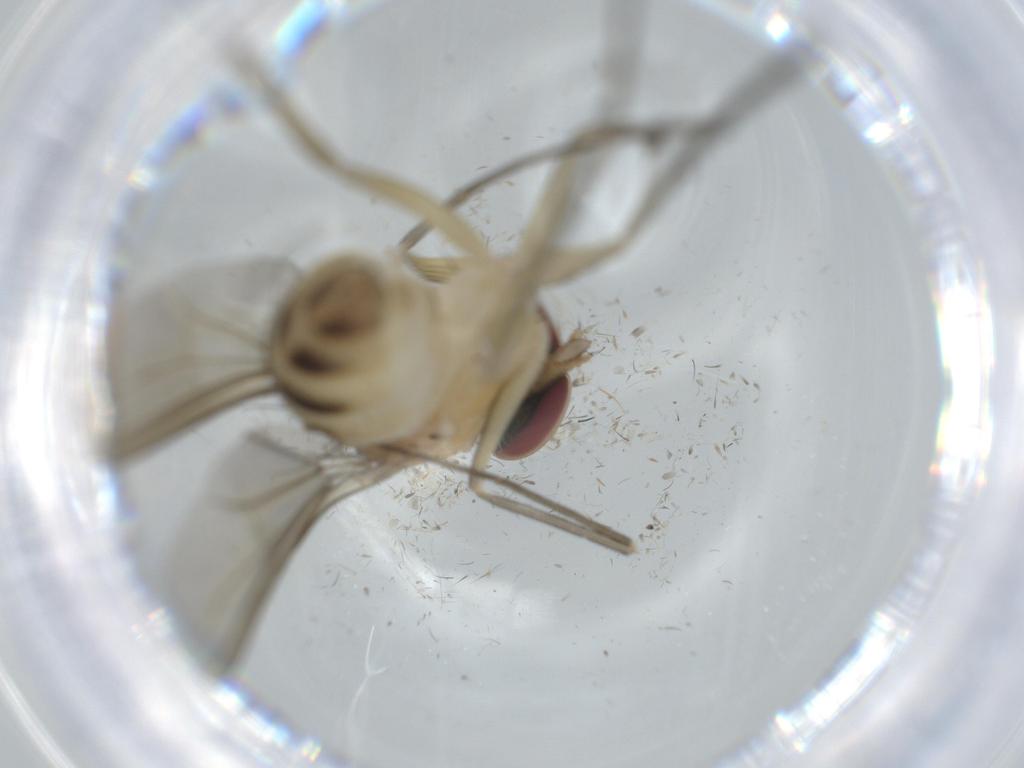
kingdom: Animalia
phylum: Arthropoda
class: Insecta
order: Diptera
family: Dolichopodidae
